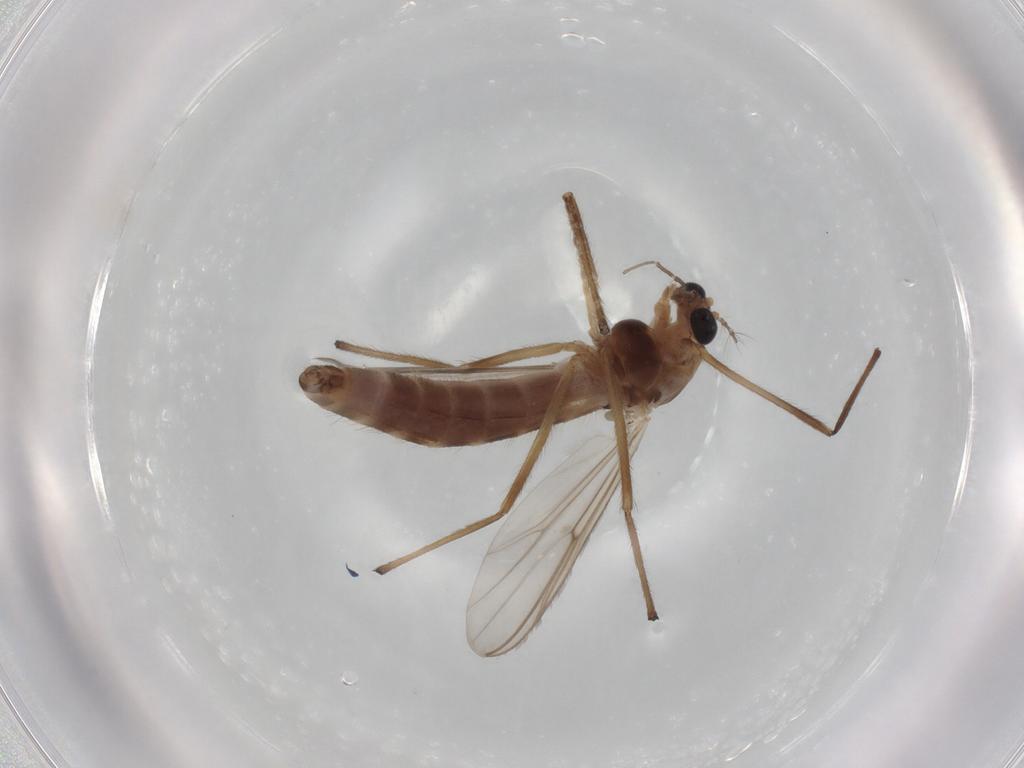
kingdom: Animalia
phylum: Arthropoda
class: Insecta
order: Diptera
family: Chironomidae
